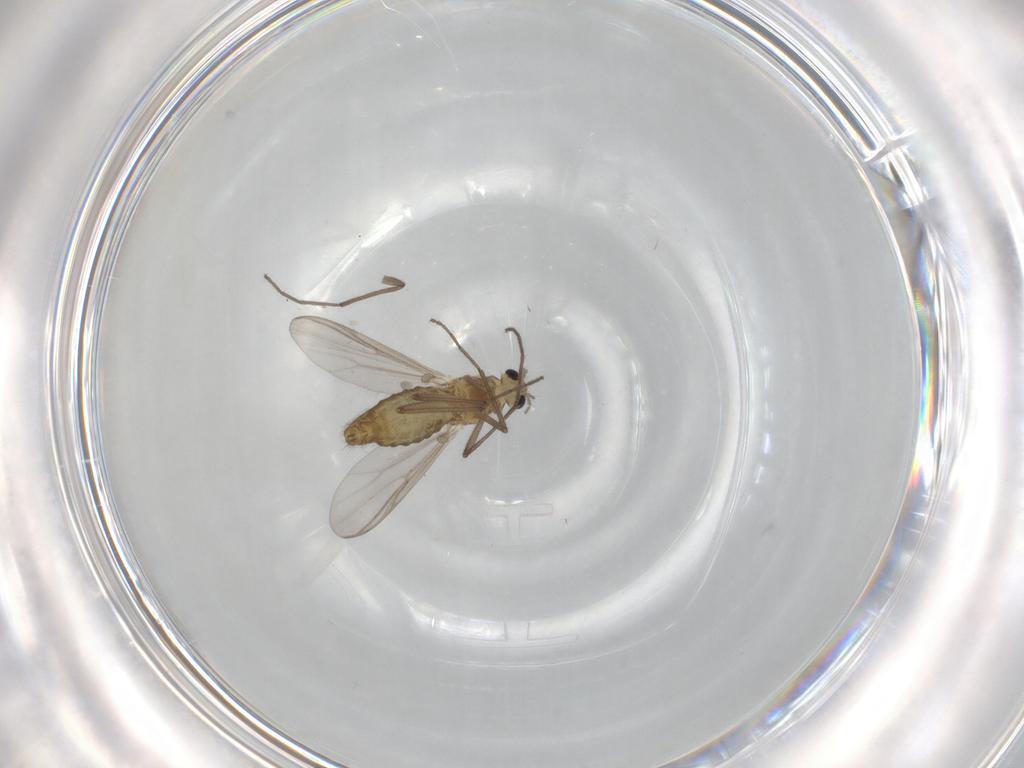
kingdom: Animalia
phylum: Arthropoda
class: Insecta
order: Diptera
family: Chironomidae
